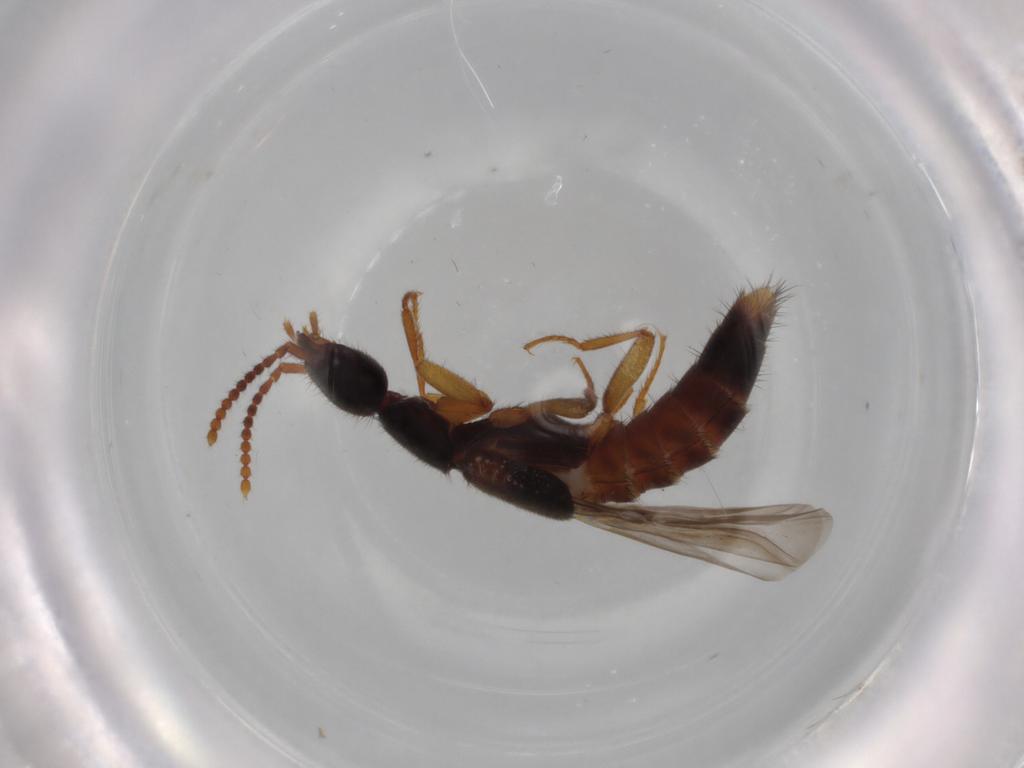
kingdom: Animalia
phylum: Arthropoda
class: Insecta
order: Coleoptera
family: Staphylinidae
